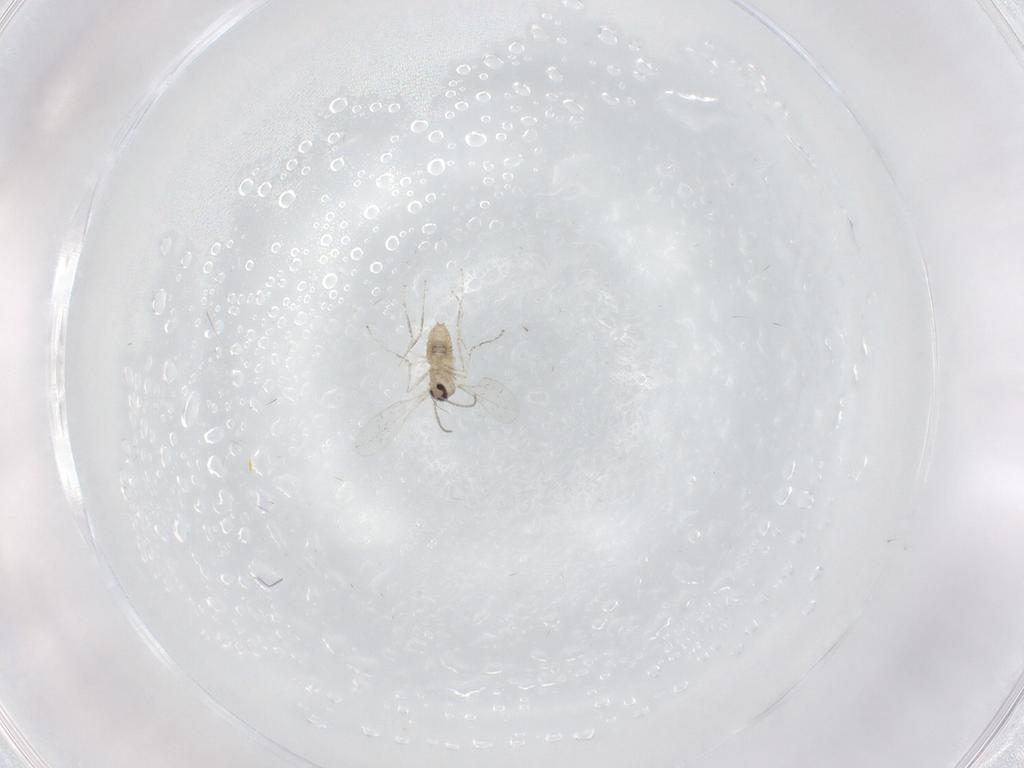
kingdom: Animalia
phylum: Arthropoda
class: Insecta
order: Diptera
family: Cecidomyiidae
